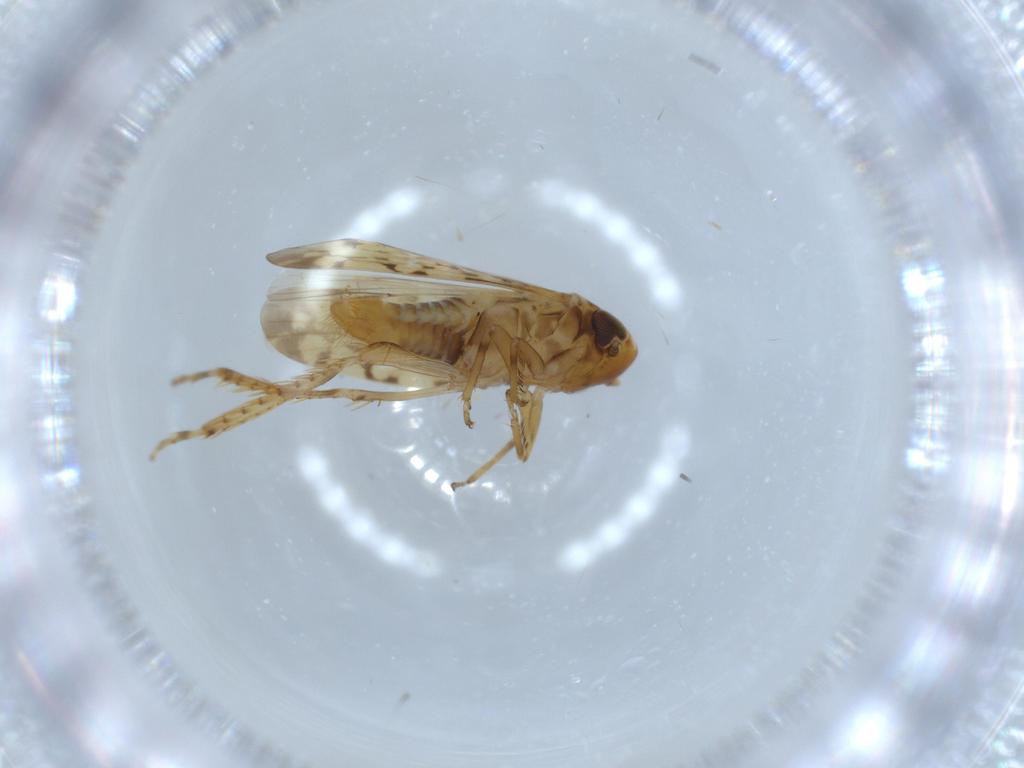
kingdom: Animalia
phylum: Arthropoda
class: Insecta
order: Hemiptera
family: Cicadellidae
